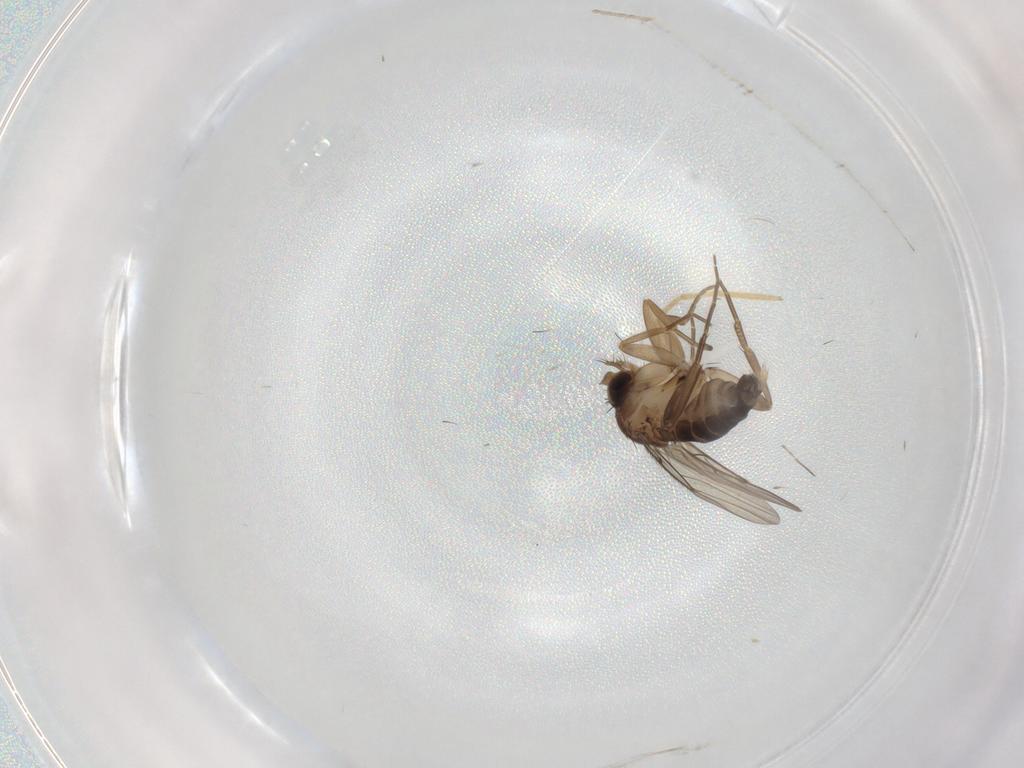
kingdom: Animalia
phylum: Arthropoda
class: Insecta
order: Diptera
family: Phoridae
